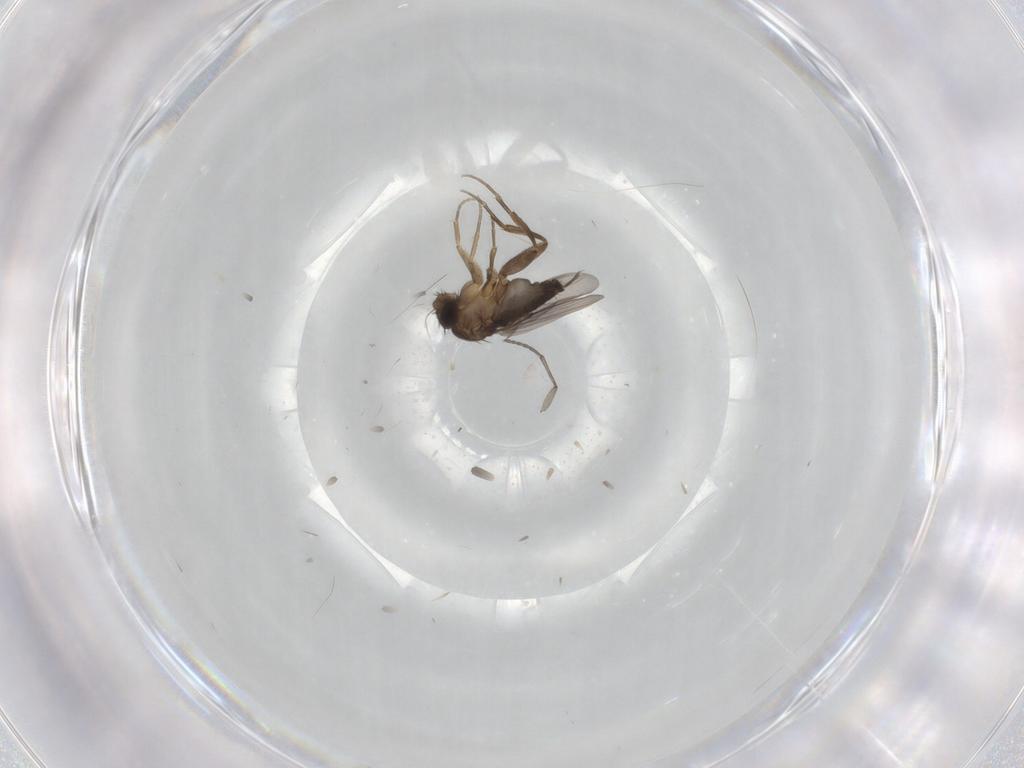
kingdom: Animalia
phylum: Arthropoda
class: Insecta
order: Diptera
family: Phoridae
